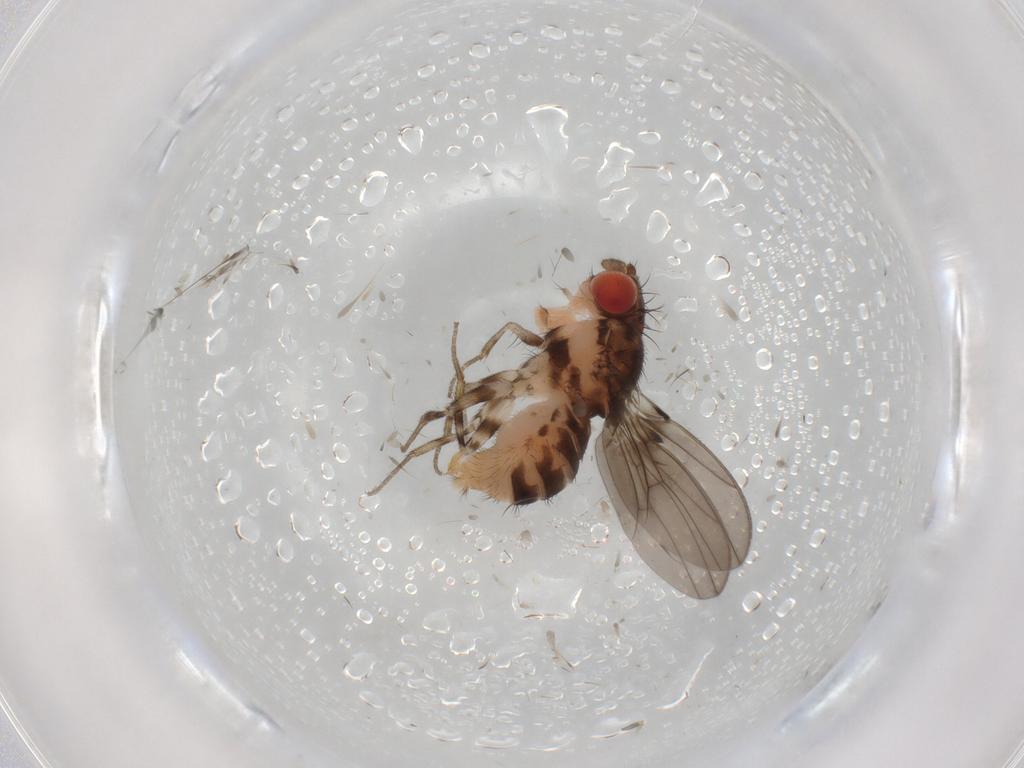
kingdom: Animalia
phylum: Arthropoda
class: Insecta
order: Diptera
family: Drosophilidae
